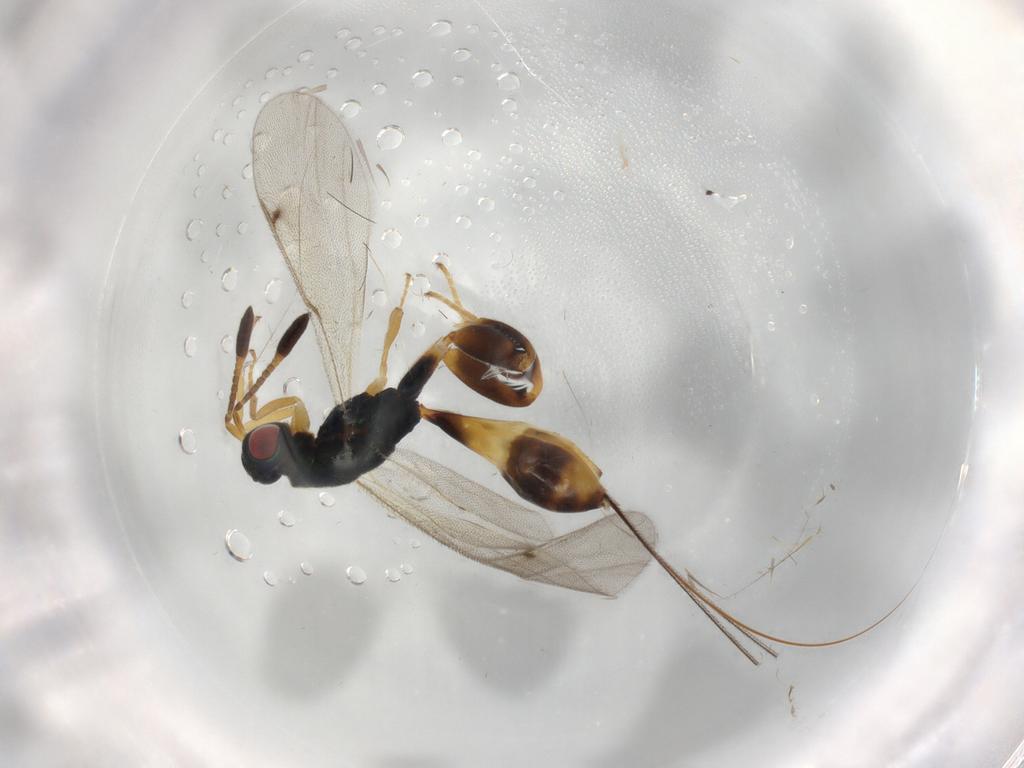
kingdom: Animalia
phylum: Arthropoda
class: Insecta
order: Hymenoptera
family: Torymidae
